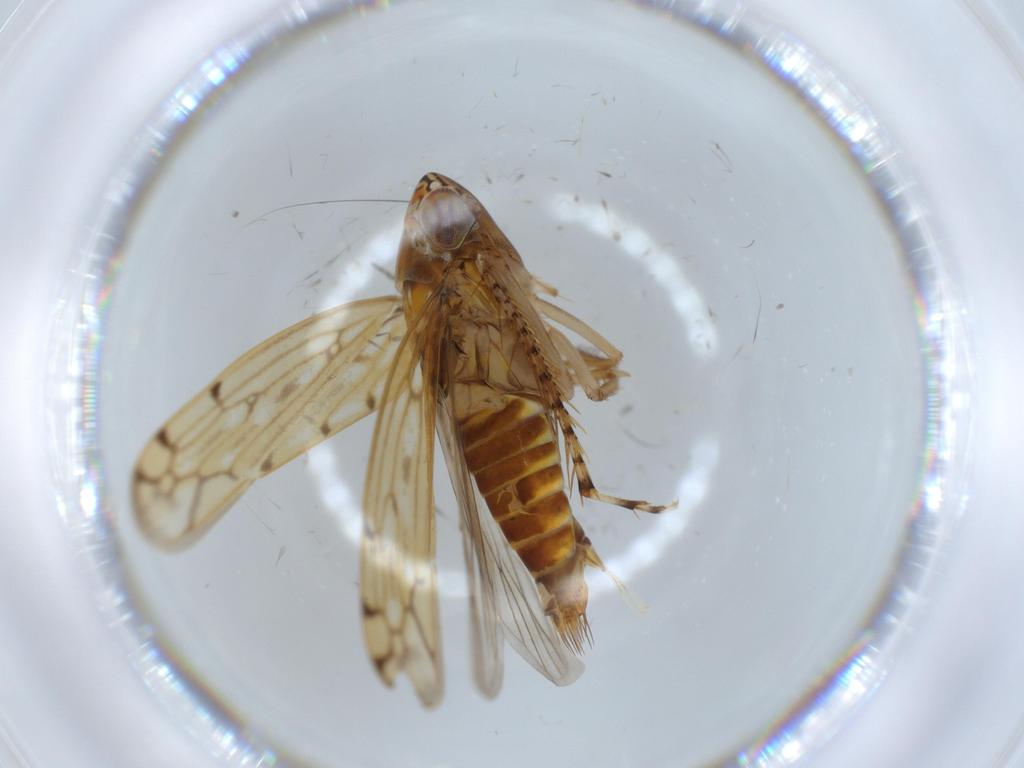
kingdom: Animalia
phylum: Arthropoda
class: Insecta
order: Hemiptera
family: Cicadellidae
